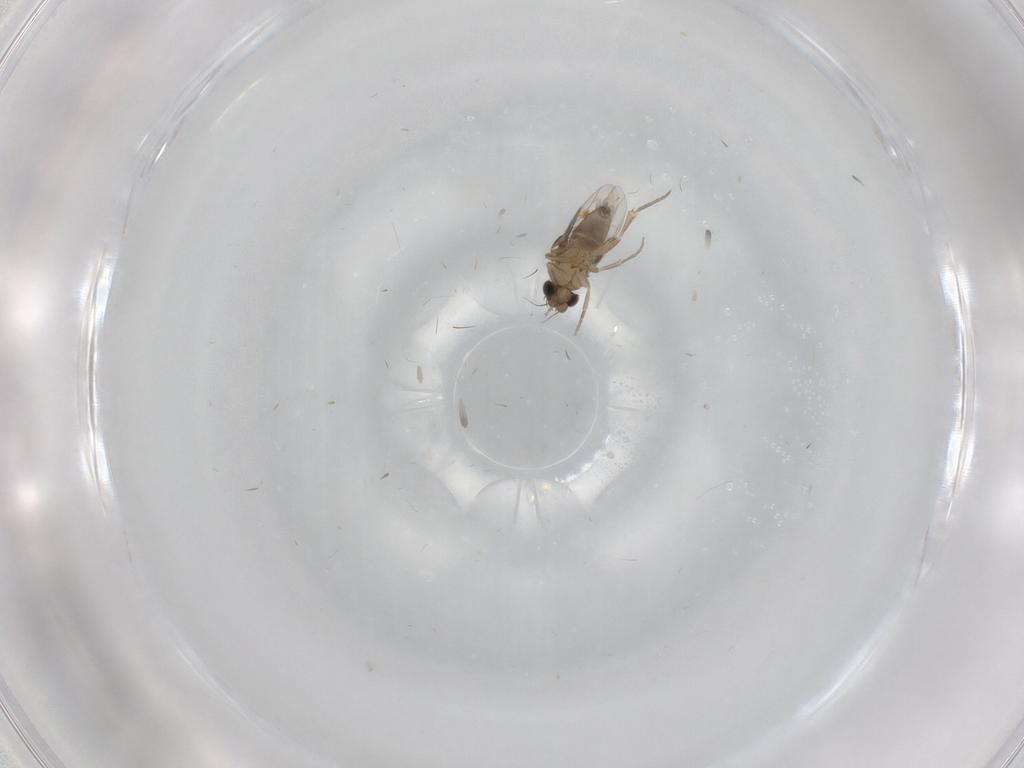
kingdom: Animalia
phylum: Arthropoda
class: Insecta
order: Diptera
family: Phoridae
